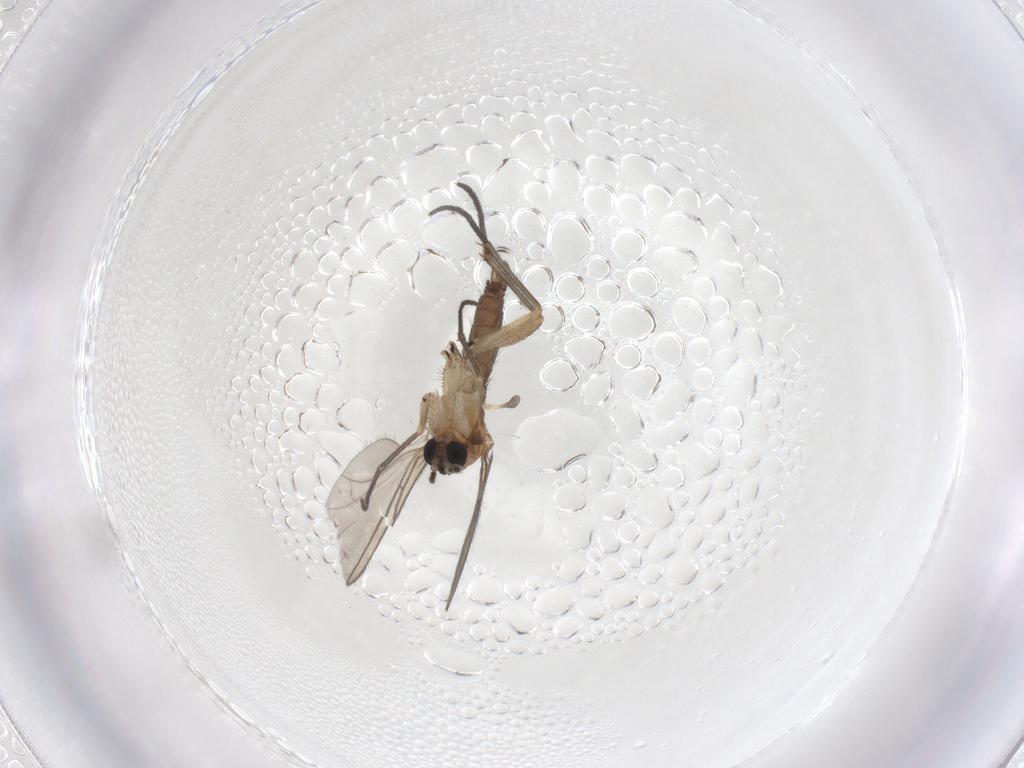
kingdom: Animalia
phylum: Arthropoda
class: Insecta
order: Diptera
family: Sciaridae
